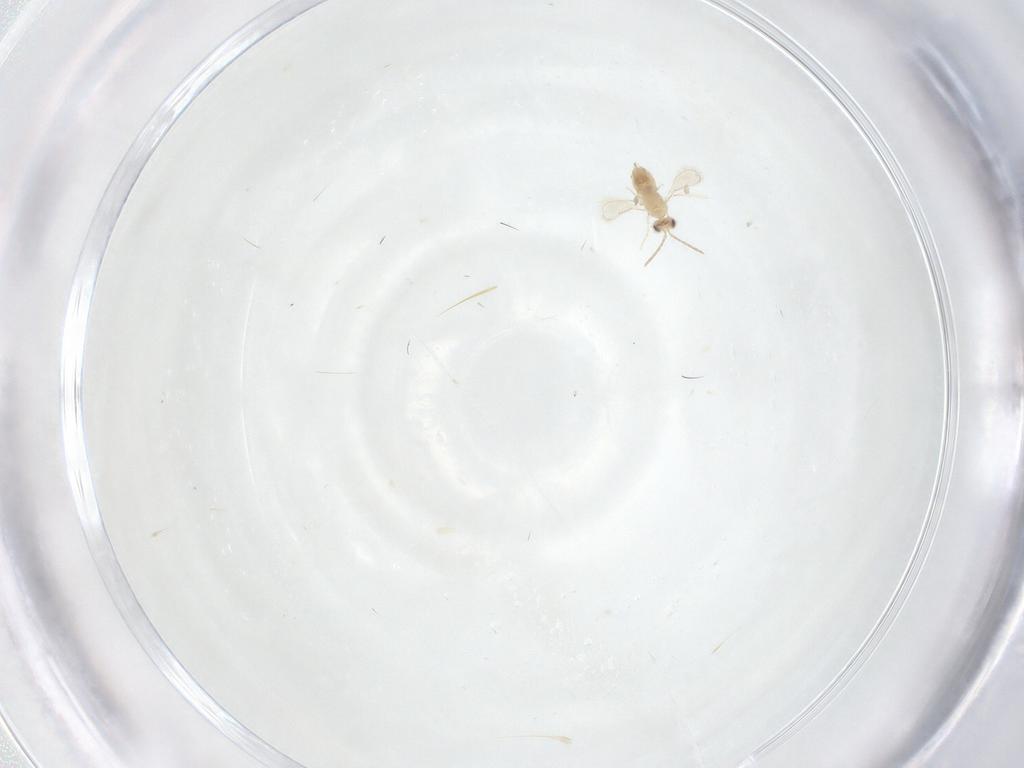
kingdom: Animalia
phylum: Arthropoda
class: Insecta
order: Hymenoptera
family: Aphelinidae
